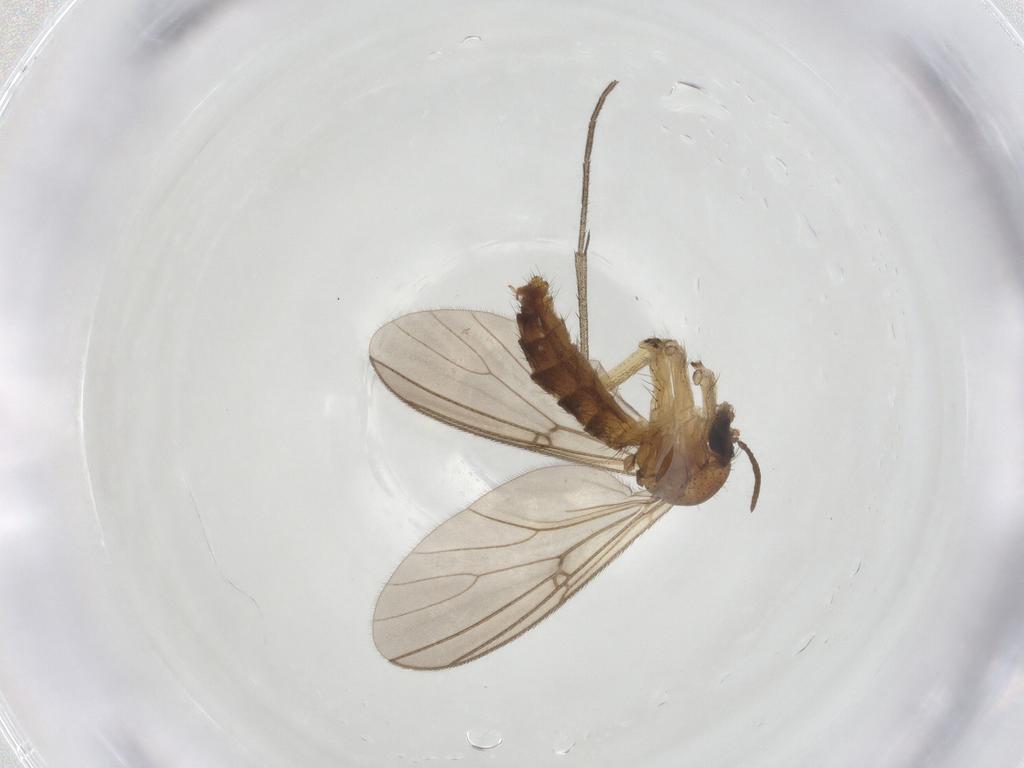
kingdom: Animalia
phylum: Arthropoda
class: Insecta
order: Diptera
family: Mycetophilidae
